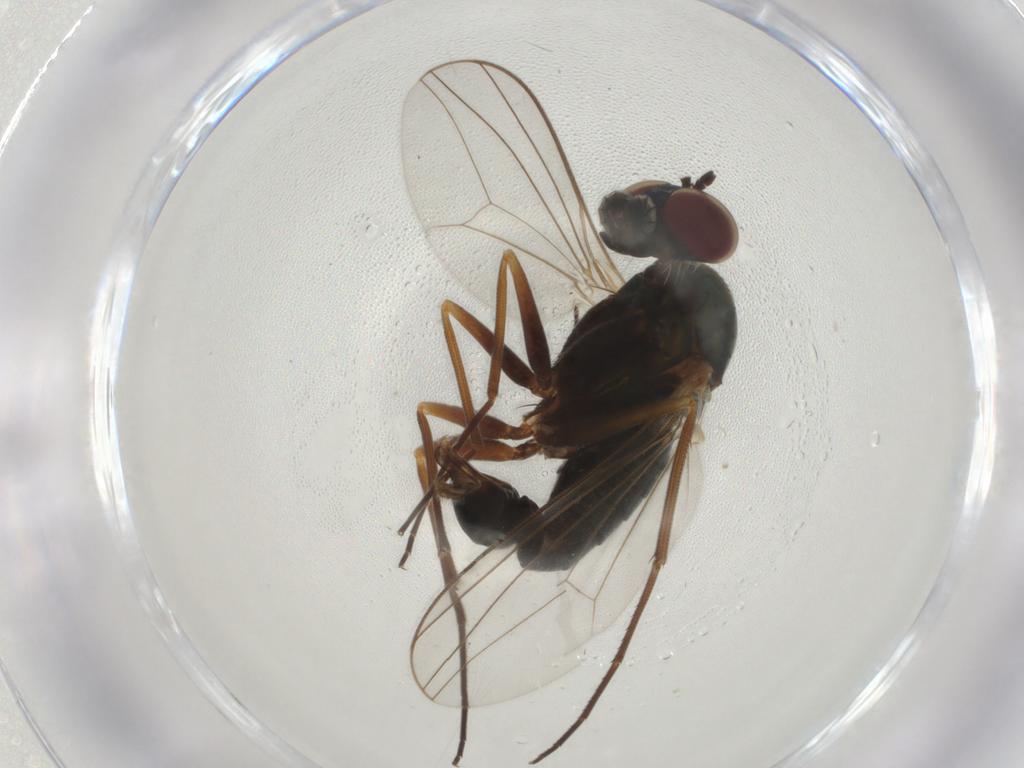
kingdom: Animalia
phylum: Arthropoda
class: Insecta
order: Diptera
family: Dolichopodidae
